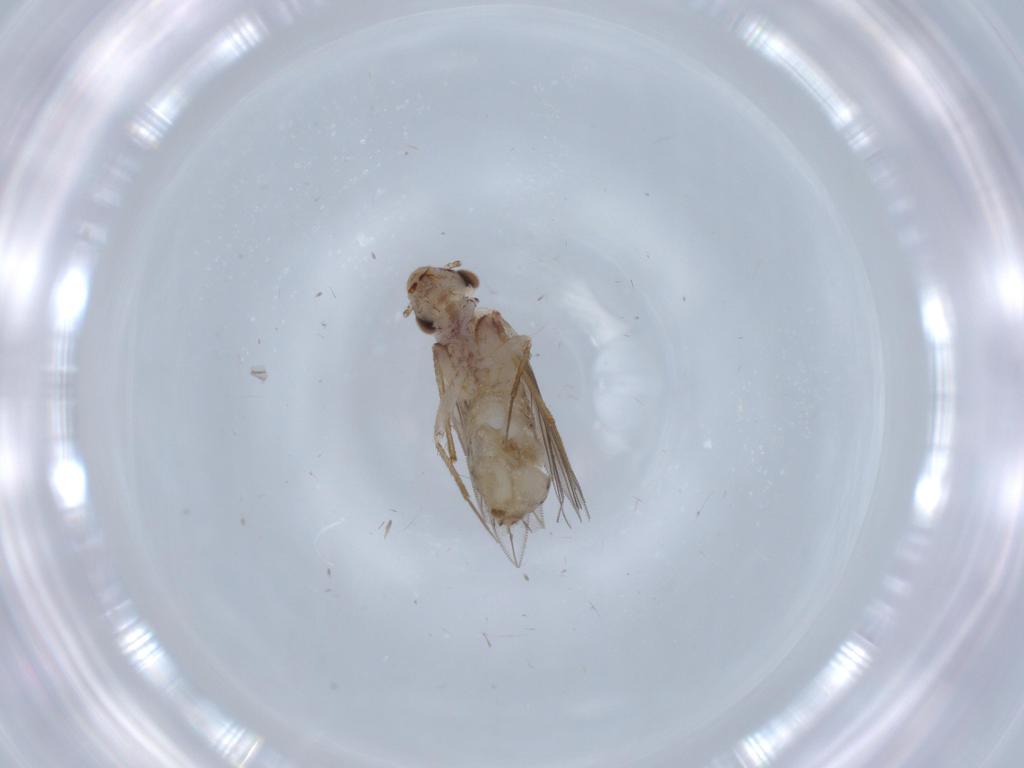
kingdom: Animalia
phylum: Arthropoda
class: Insecta
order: Psocodea
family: Lepidopsocidae
